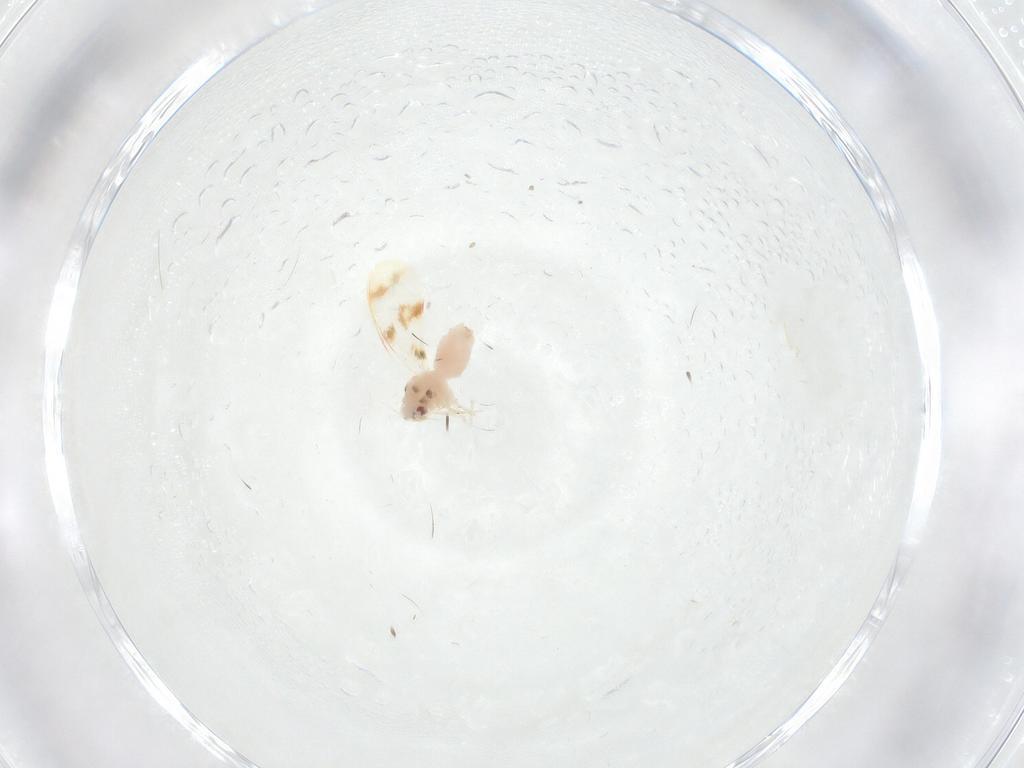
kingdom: Animalia
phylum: Arthropoda
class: Insecta
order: Hemiptera
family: Aleyrodidae
